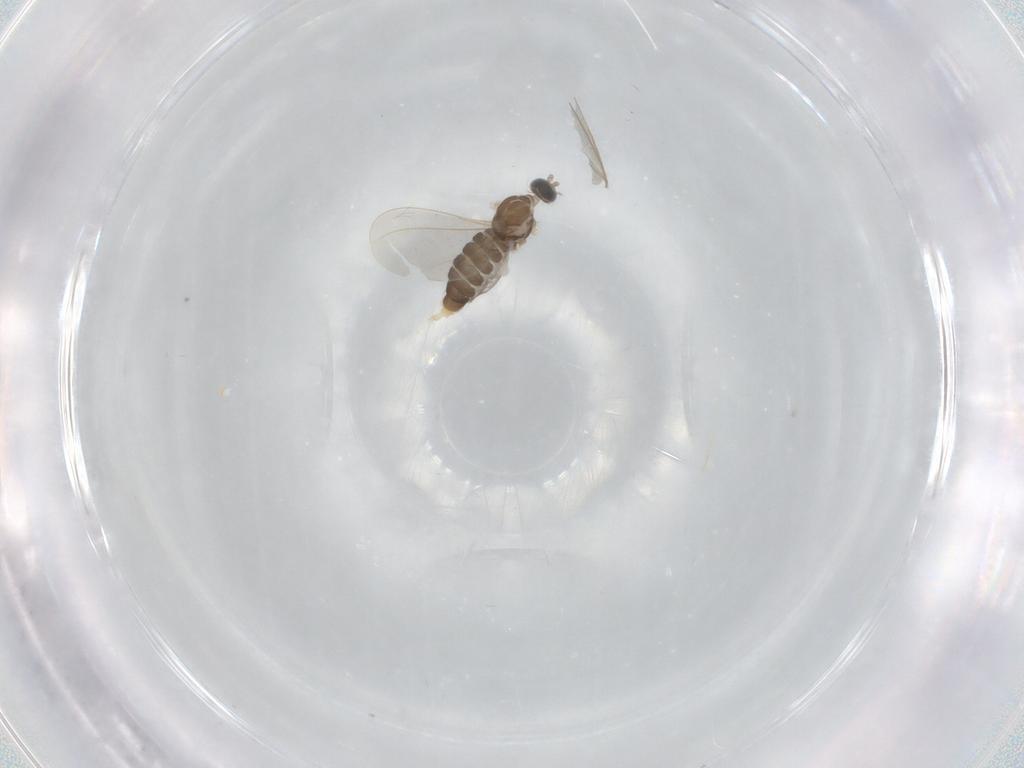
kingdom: Animalia
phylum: Arthropoda
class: Insecta
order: Diptera
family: Cecidomyiidae
